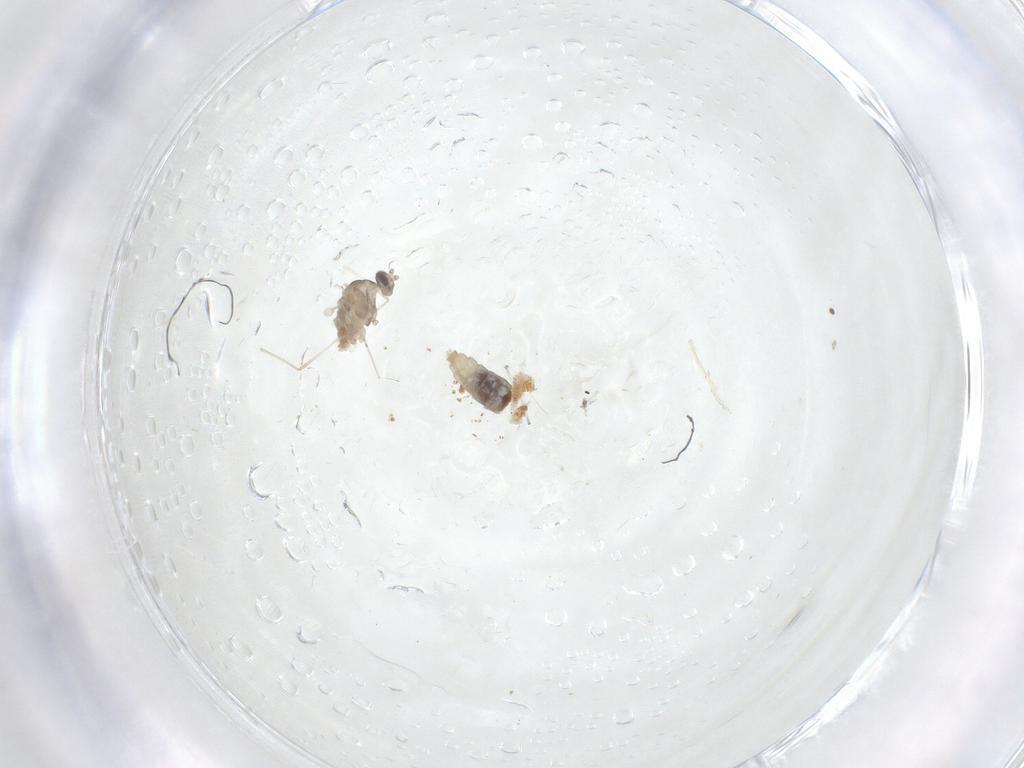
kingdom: Animalia
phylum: Arthropoda
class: Insecta
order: Diptera
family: Cecidomyiidae
